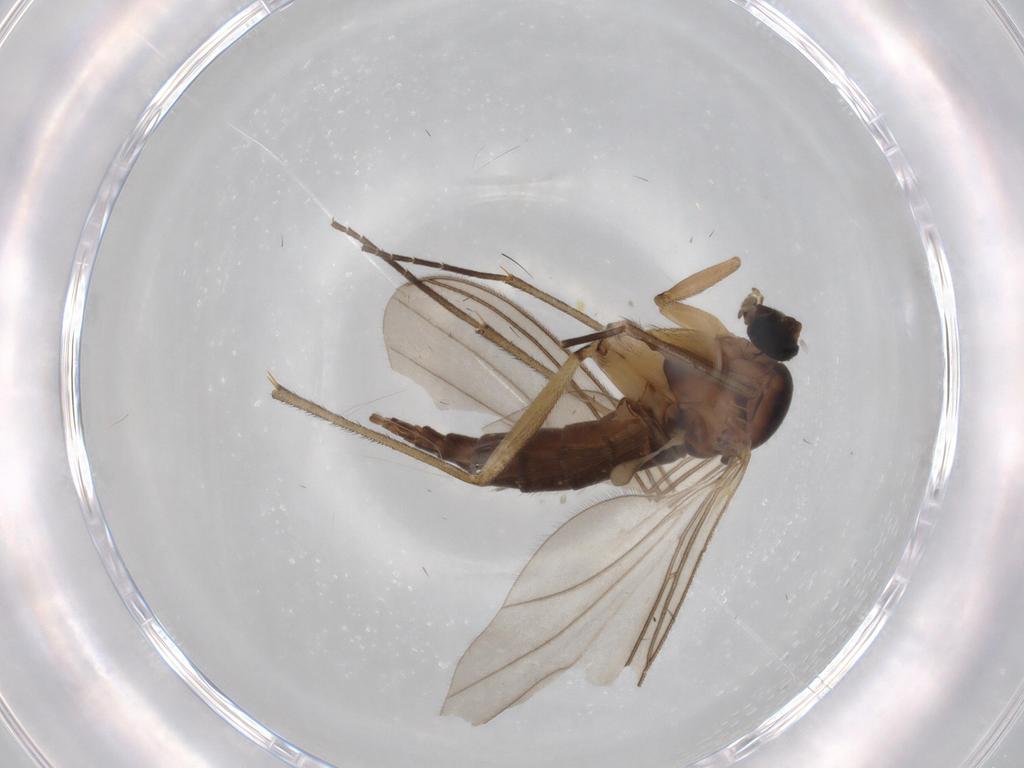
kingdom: Animalia
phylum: Arthropoda
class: Insecta
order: Diptera
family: Sciaridae
